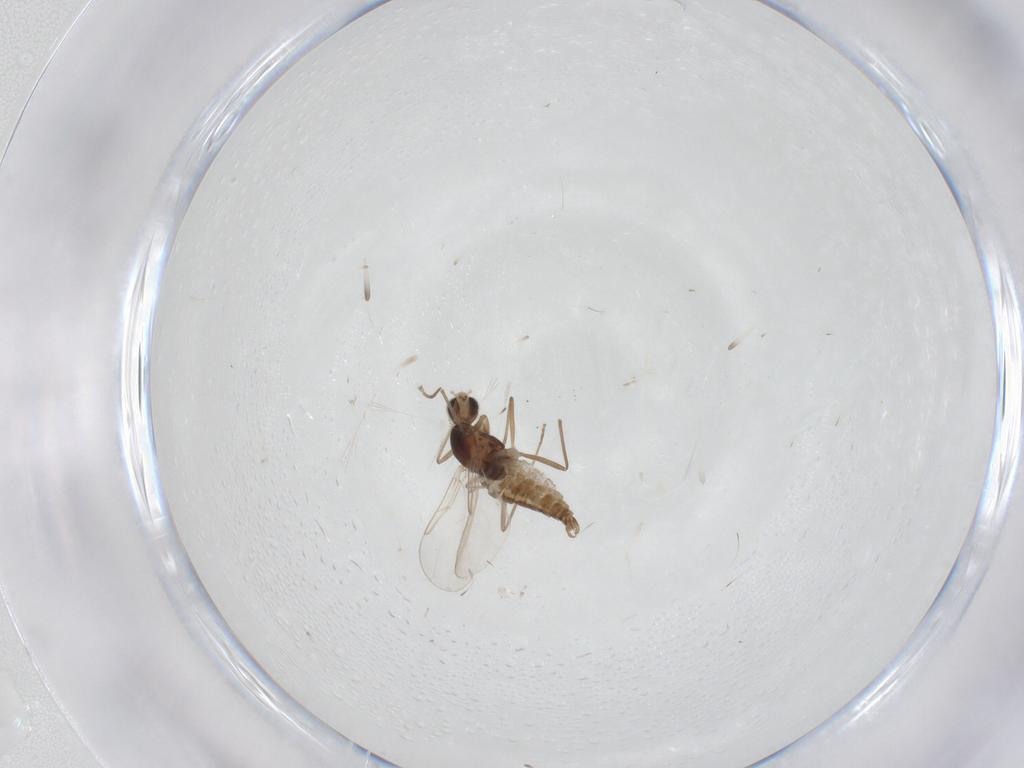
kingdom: Animalia
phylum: Arthropoda
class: Insecta
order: Diptera
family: Cecidomyiidae
